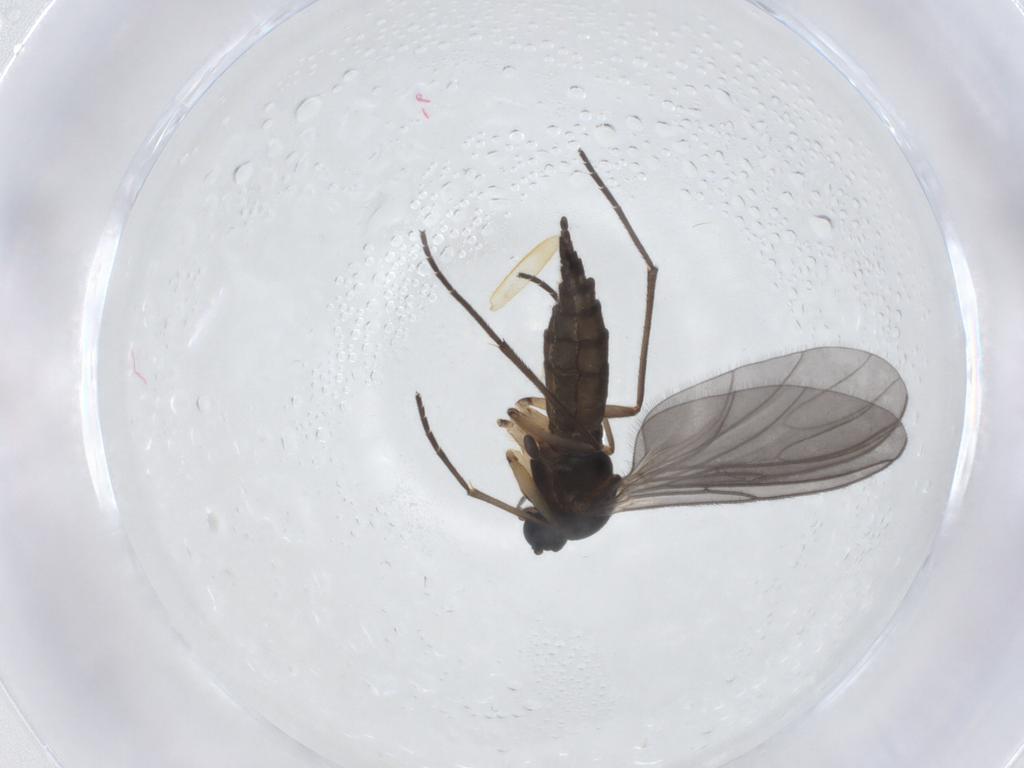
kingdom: Animalia
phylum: Arthropoda
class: Insecta
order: Diptera
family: Sciaridae
